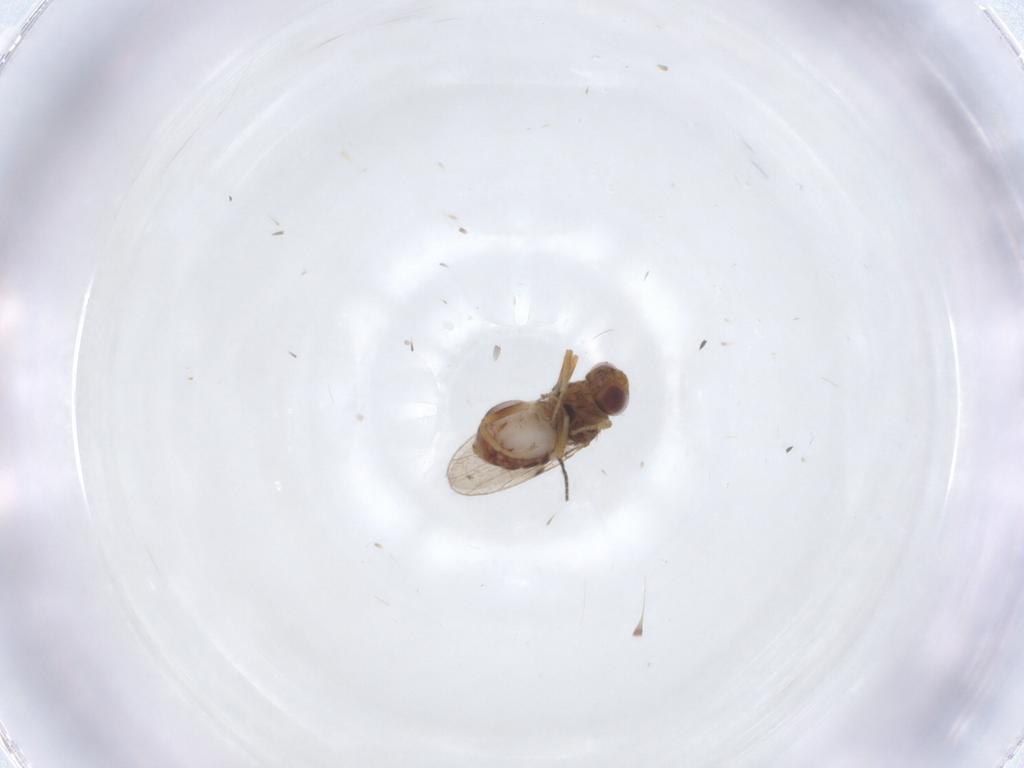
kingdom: Animalia
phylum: Arthropoda
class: Insecta
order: Diptera
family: Chloropidae
